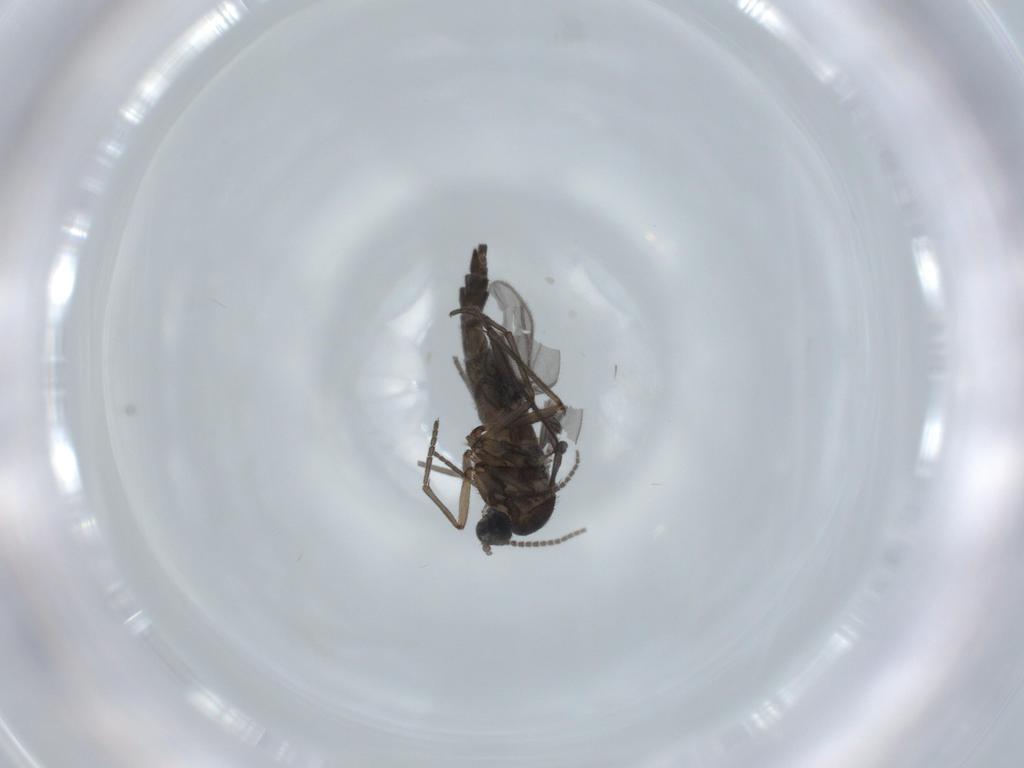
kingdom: Animalia
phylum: Arthropoda
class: Insecta
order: Diptera
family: Sciaridae
